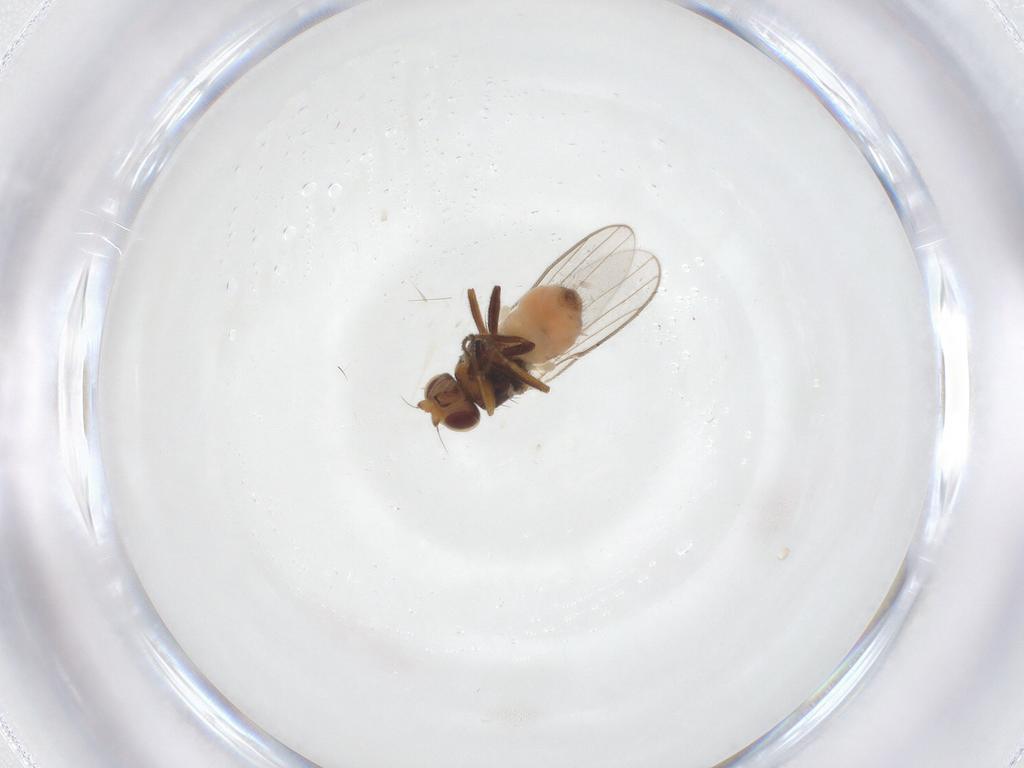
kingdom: Animalia
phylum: Arthropoda
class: Insecta
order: Diptera
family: Chloropidae
